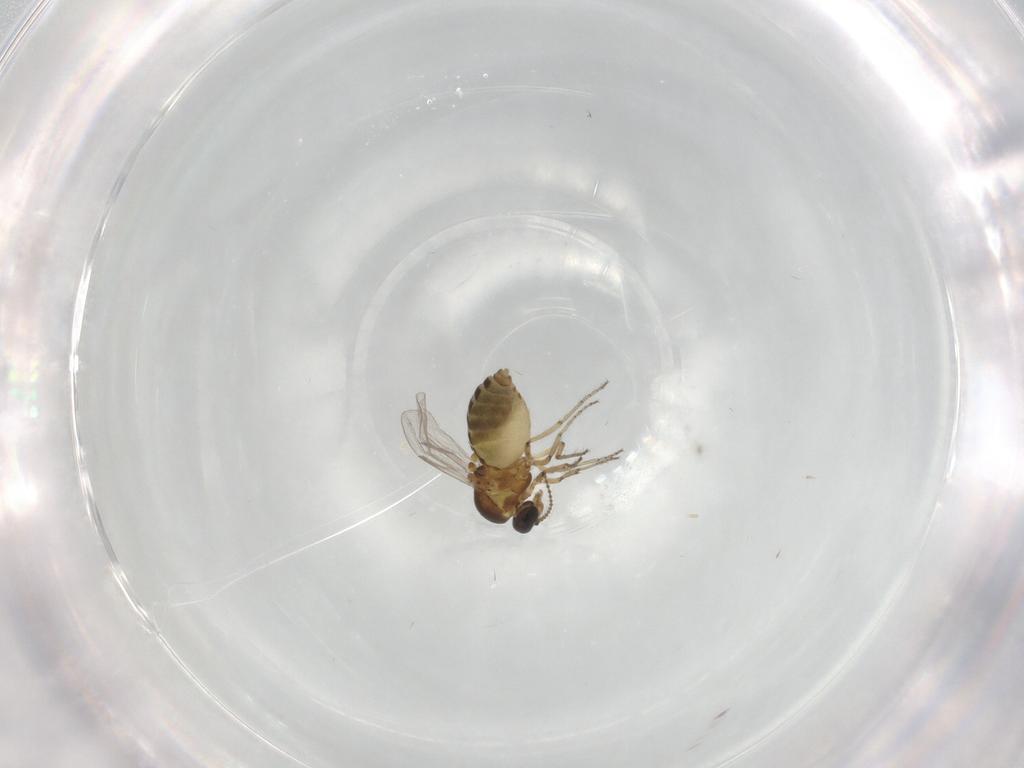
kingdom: Animalia
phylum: Arthropoda
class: Insecta
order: Diptera
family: Ceratopogonidae
